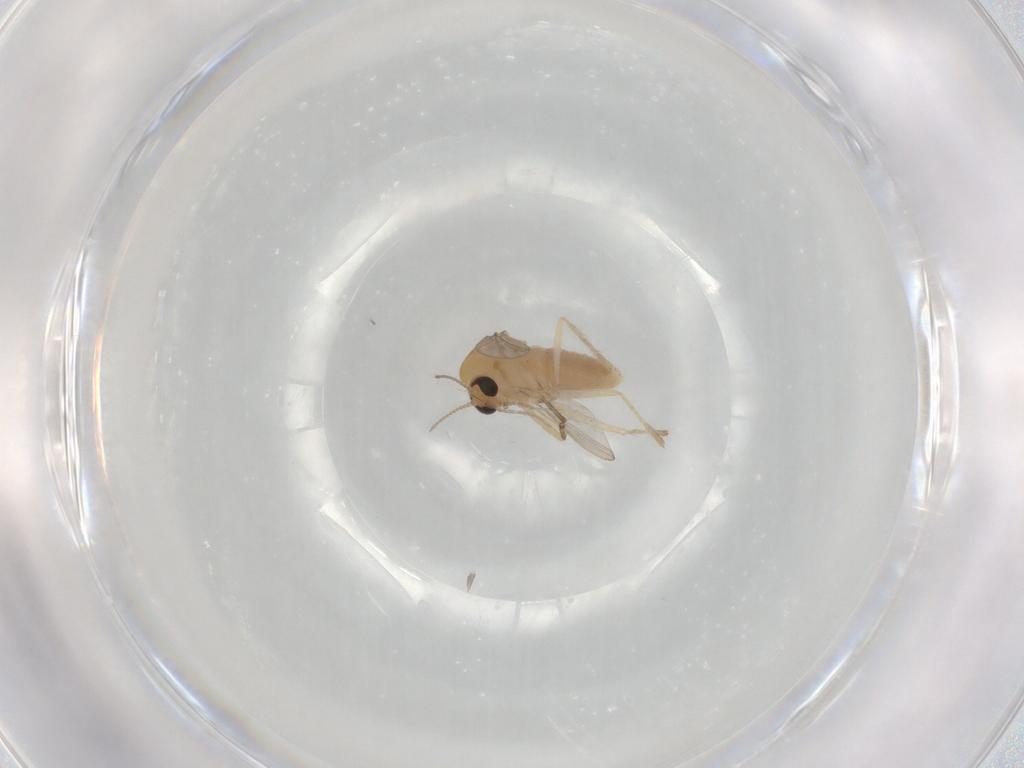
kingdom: Animalia
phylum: Arthropoda
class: Insecta
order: Diptera
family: Chironomidae
